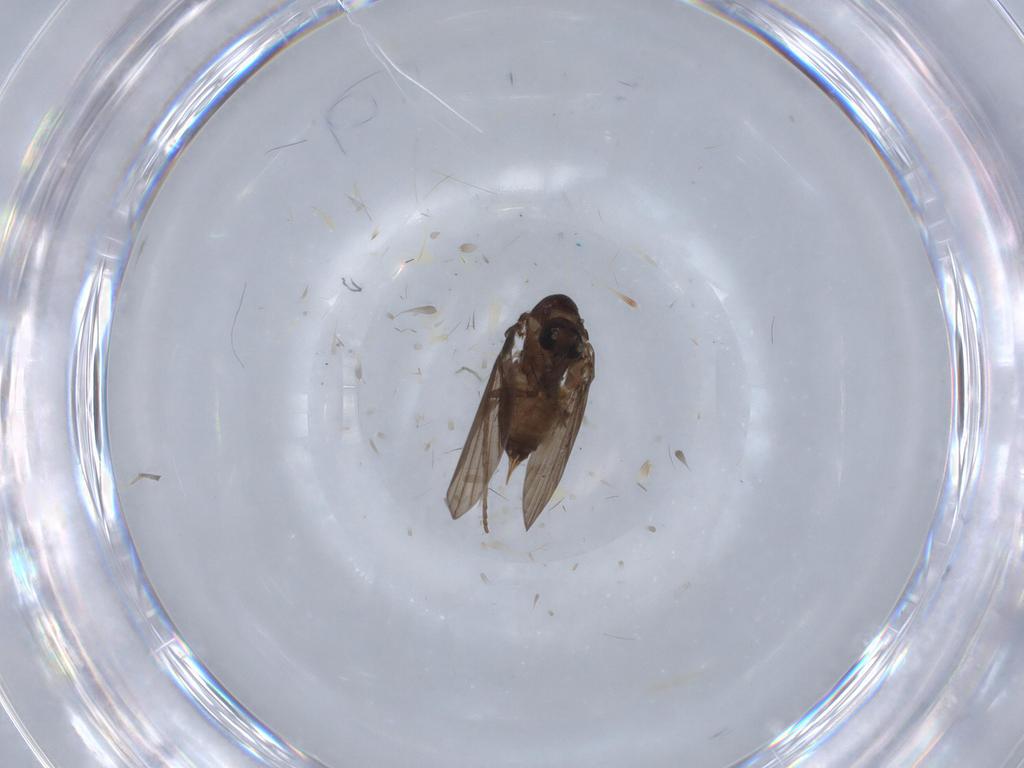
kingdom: Animalia
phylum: Arthropoda
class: Insecta
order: Diptera
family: Psychodidae
